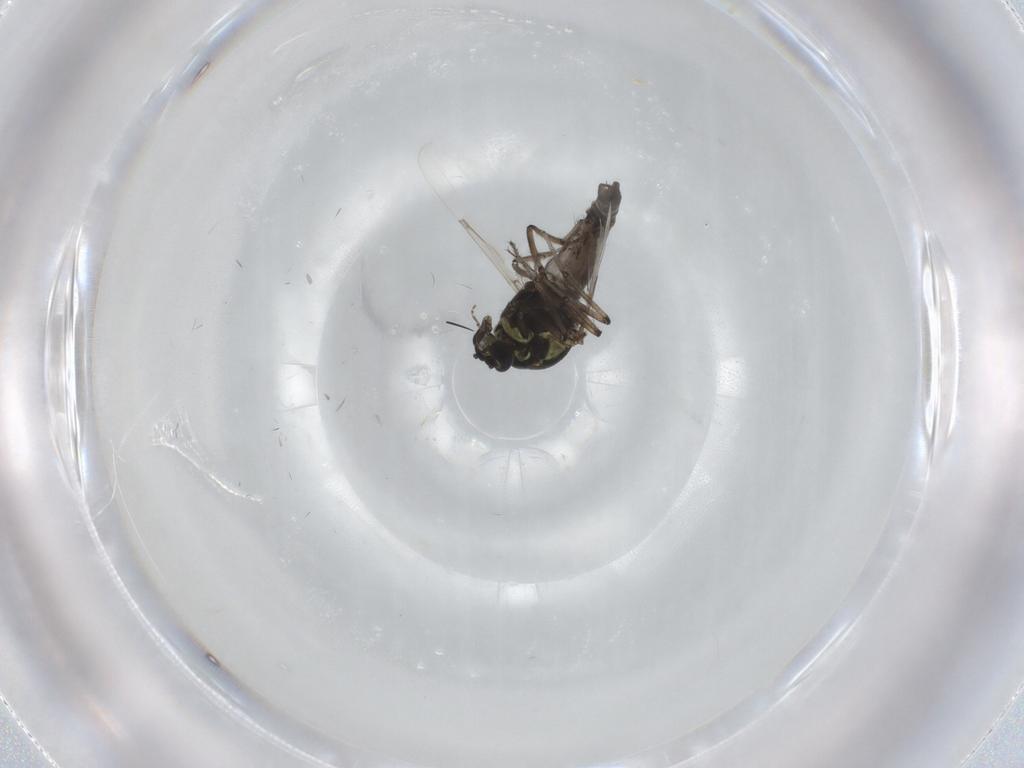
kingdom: Animalia
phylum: Arthropoda
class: Insecta
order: Diptera
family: Ceratopogonidae
